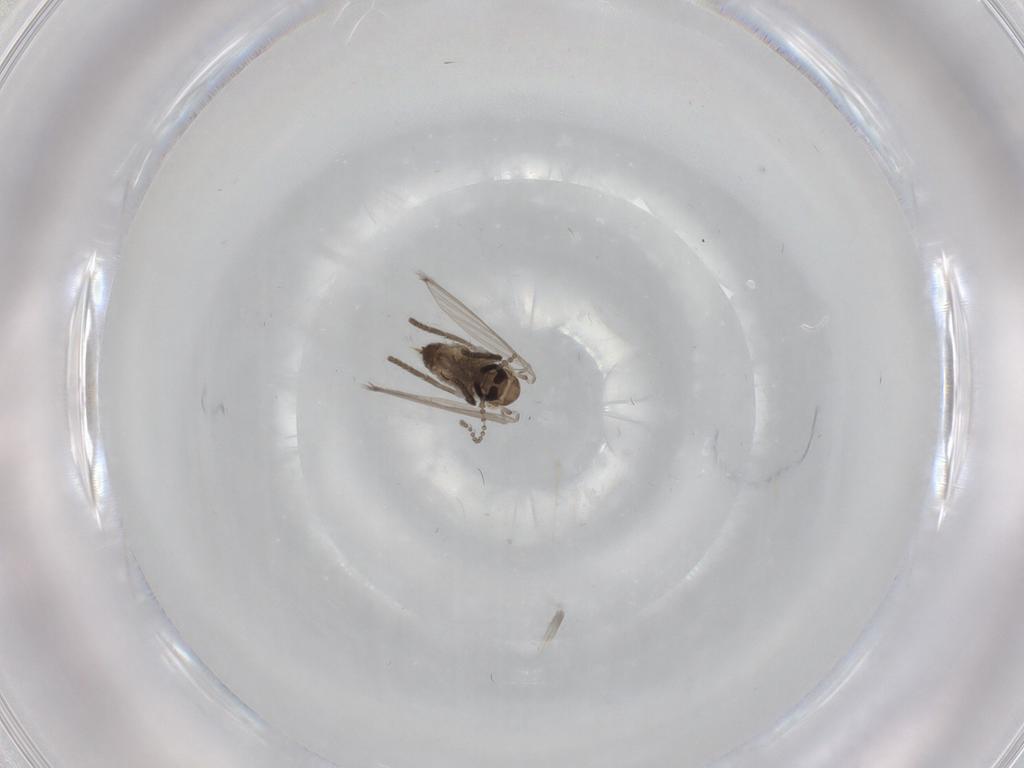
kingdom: Animalia
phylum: Arthropoda
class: Insecta
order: Diptera
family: Psychodidae
